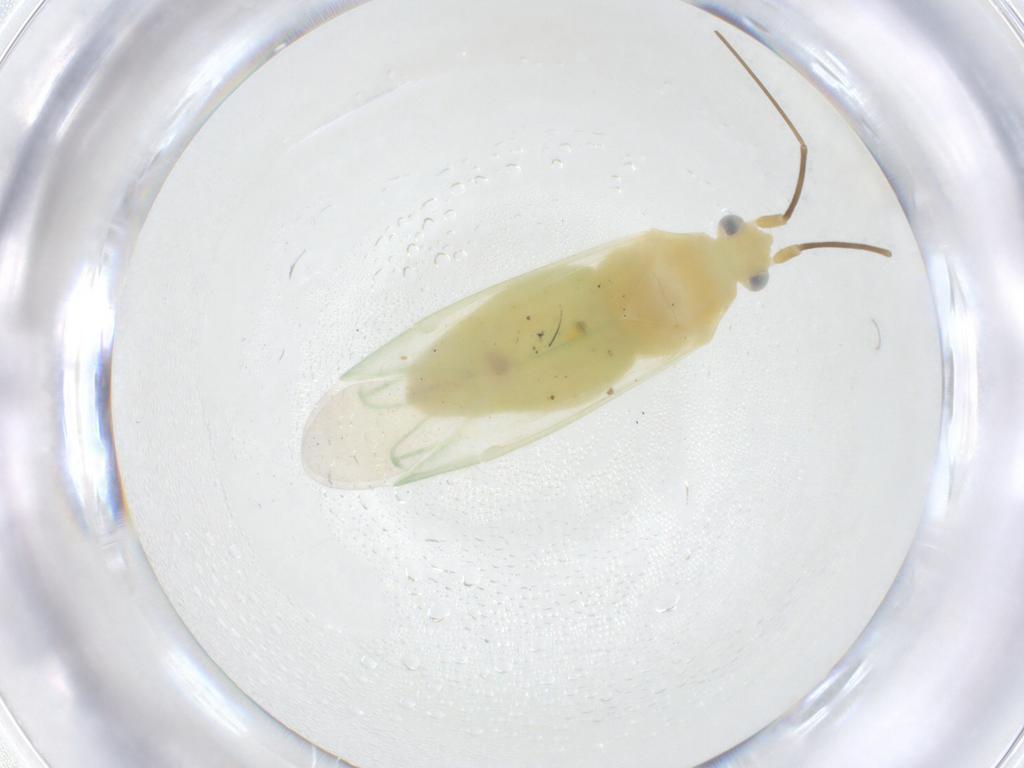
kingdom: Animalia
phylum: Arthropoda
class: Insecta
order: Hemiptera
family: Miridae
